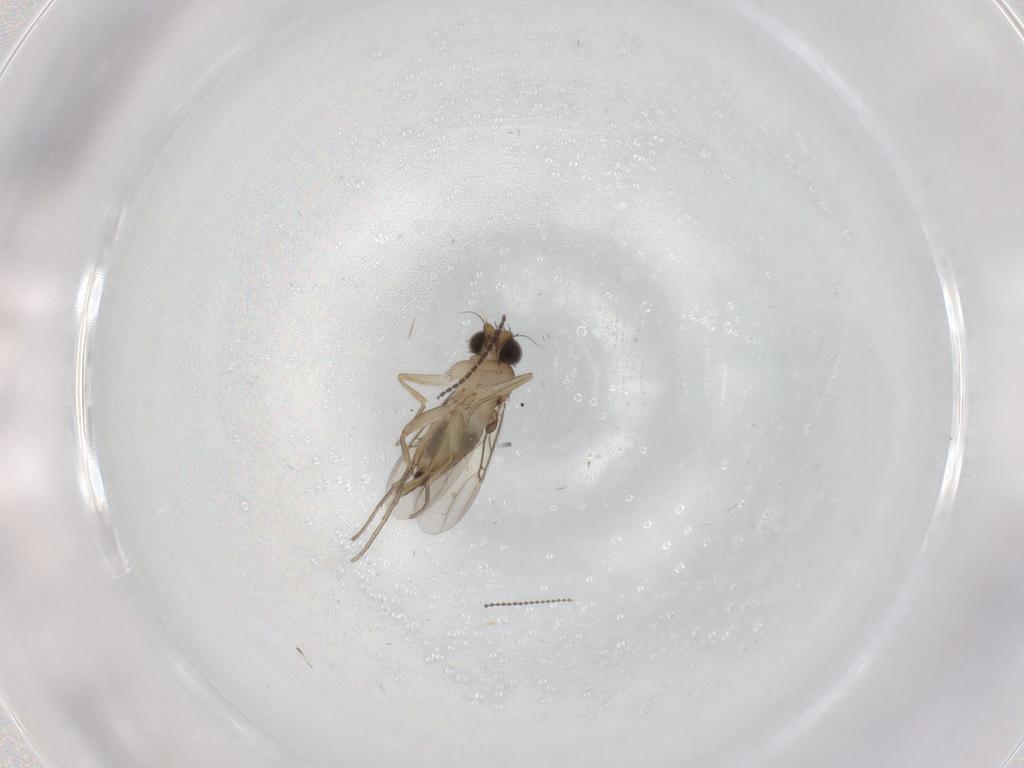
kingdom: Animalia
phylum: Arthropoda
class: Insecta
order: Diptera
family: Phoridae
